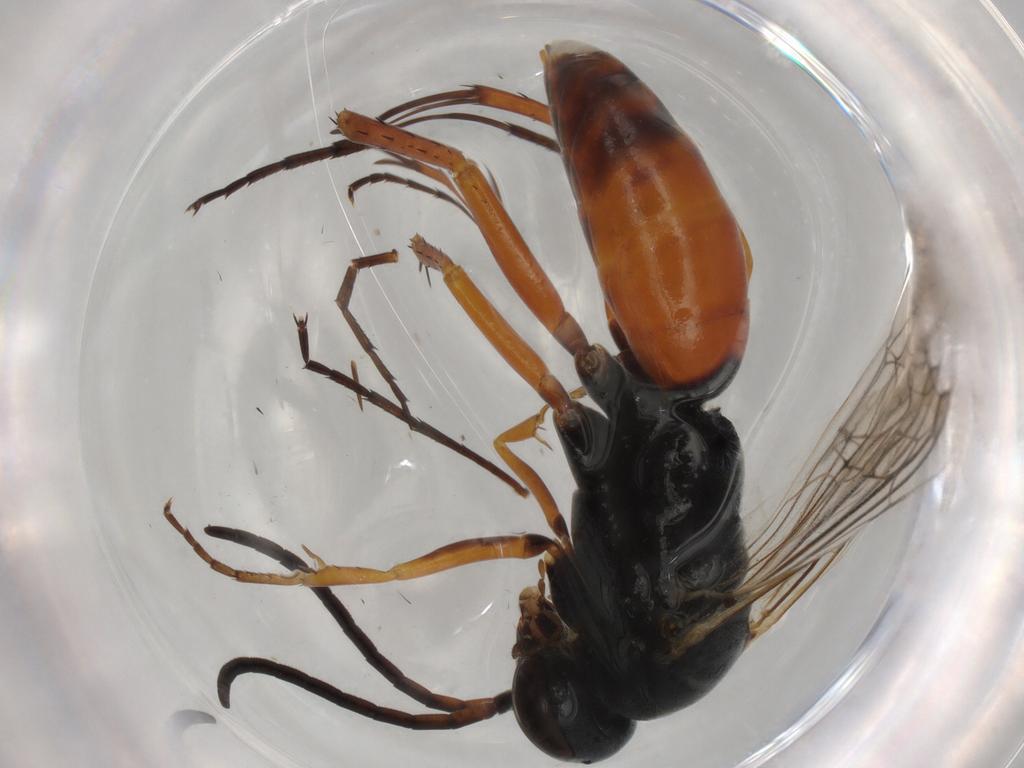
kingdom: Animalia
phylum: Arthropoda
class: Insecta
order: Hymenoptera
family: Pompilidae
